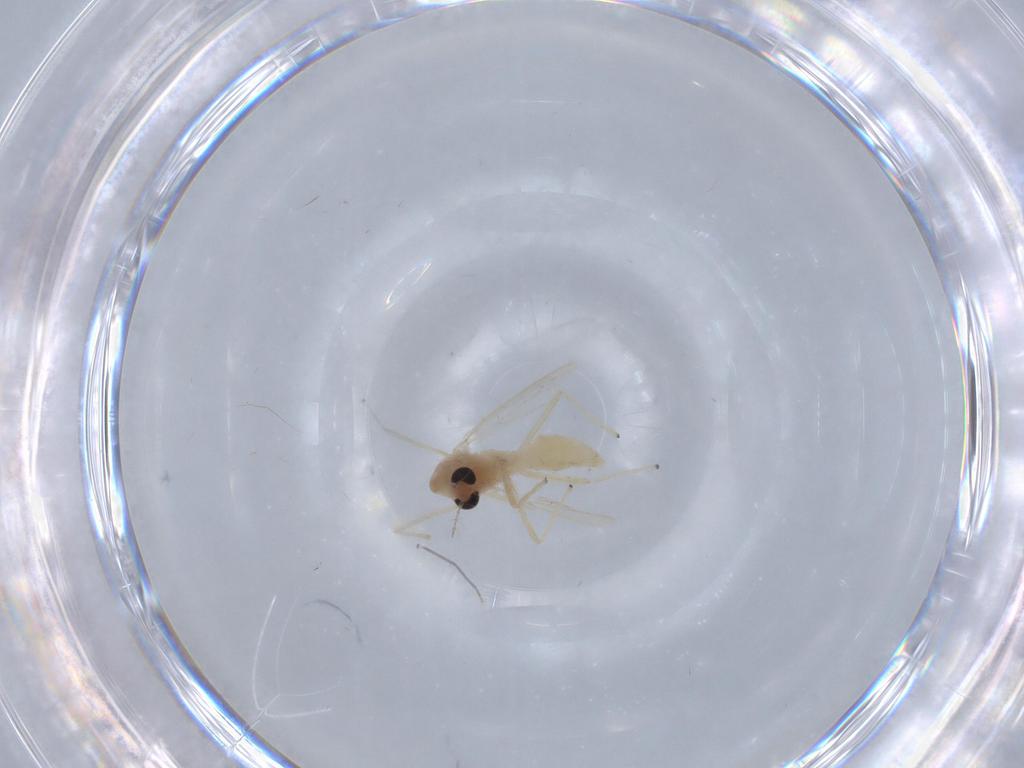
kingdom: Animalia
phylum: Arthropoda
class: Insecta
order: Diptera
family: Chironomidae
